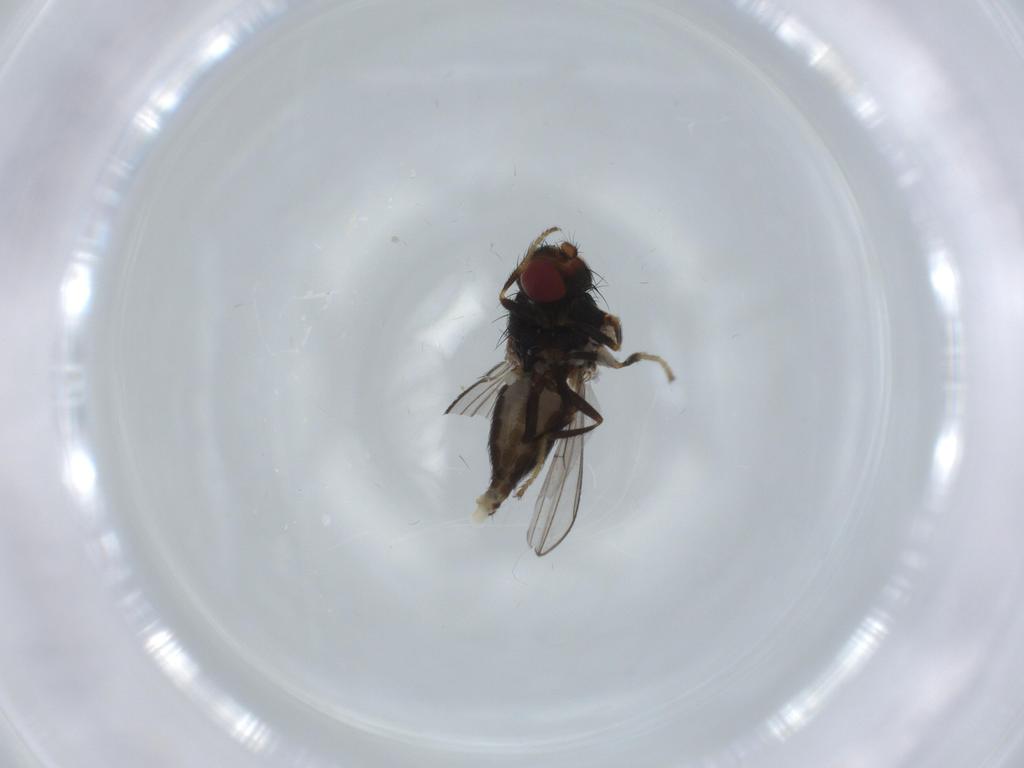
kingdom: Animalia
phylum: Arthropoda
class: Insecta
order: Diptera
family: Ephydridae
